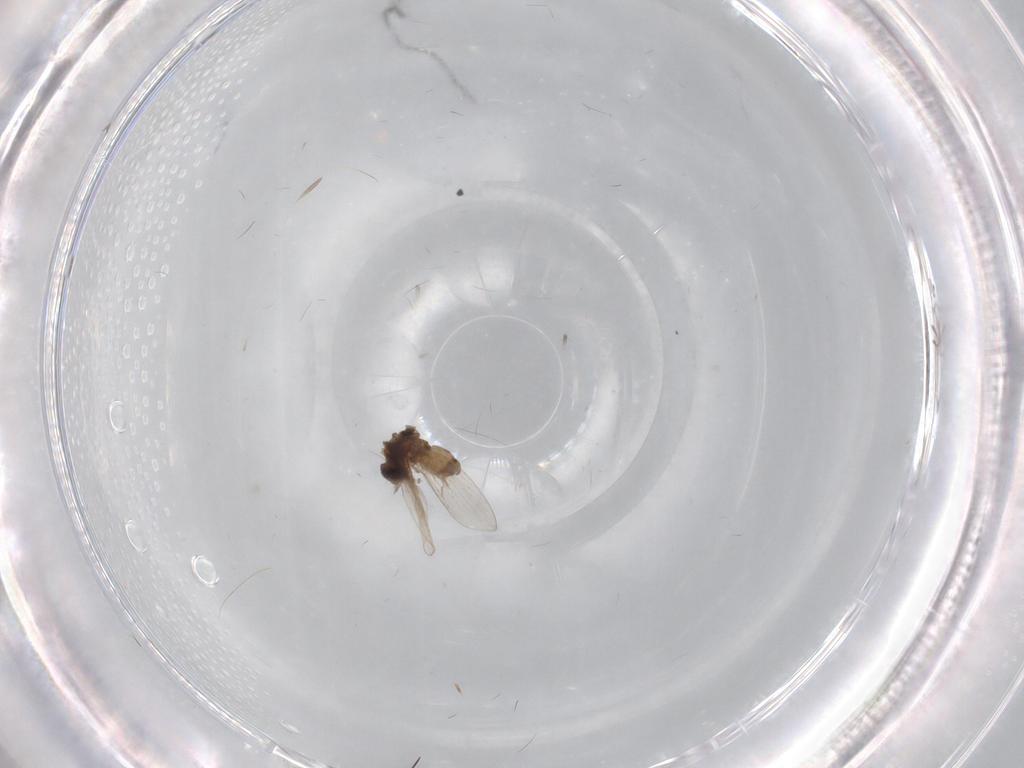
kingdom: Animalia
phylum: Arthropoda
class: Insecta
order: Diptera
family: Psychodidae
